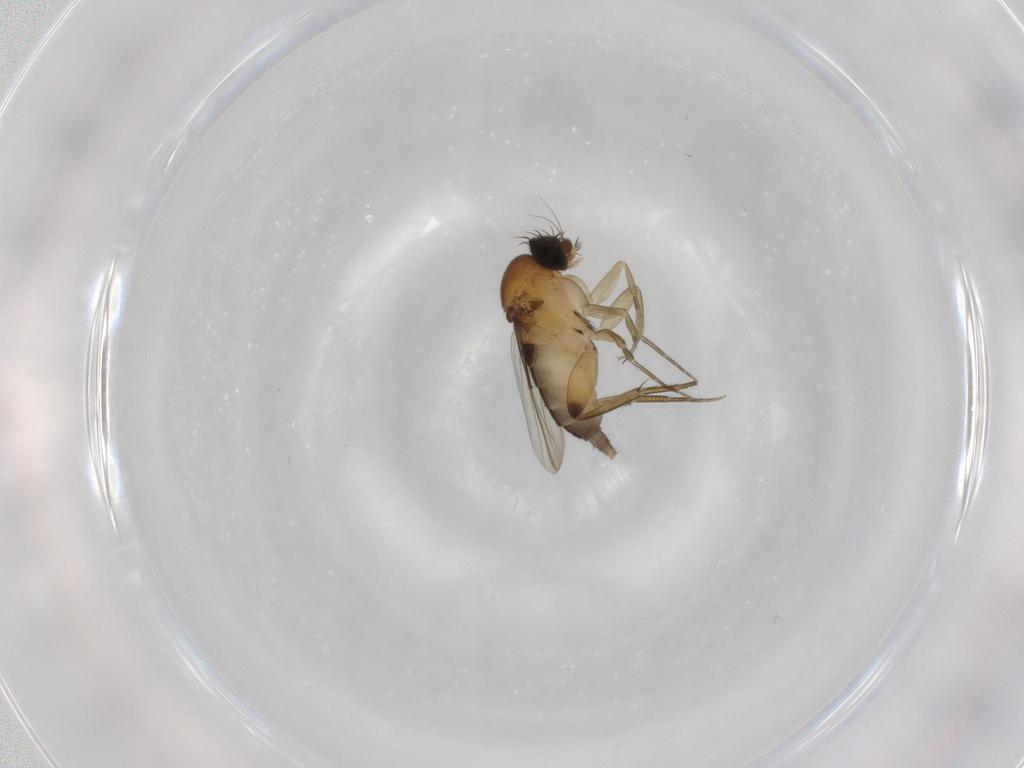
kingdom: Animalia
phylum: Arthropoda
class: Insecta
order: Diptera
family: Phoridae
